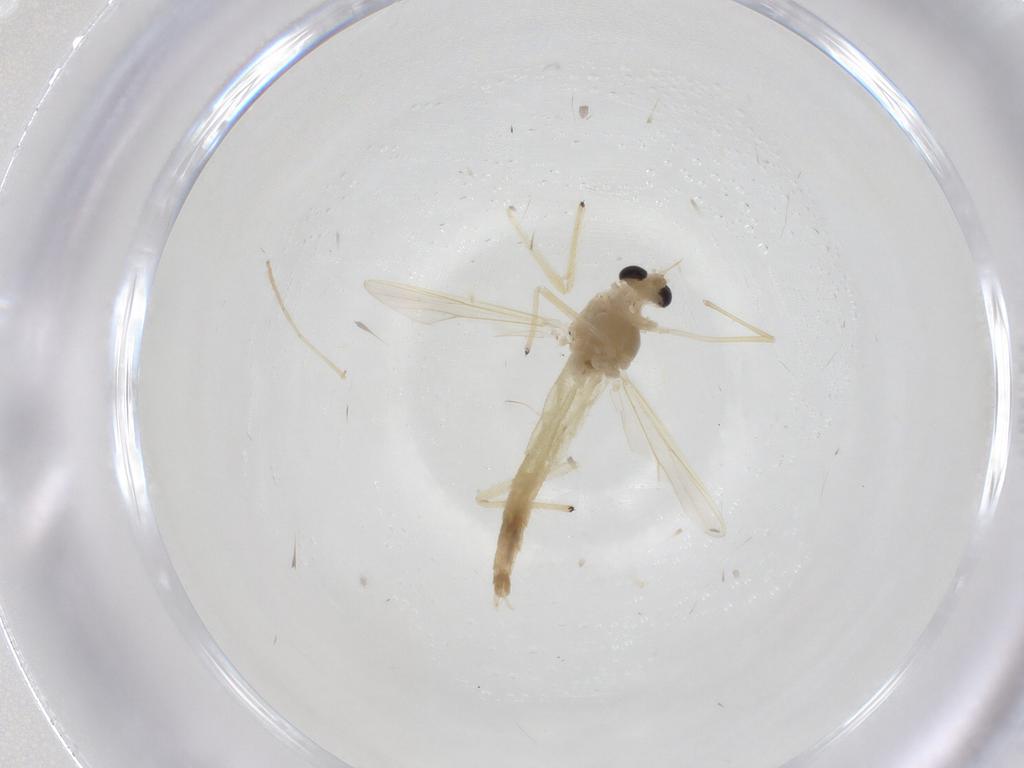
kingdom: Animalia
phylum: Arthropoda
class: Insecta
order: Diptera
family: Chironomidae
